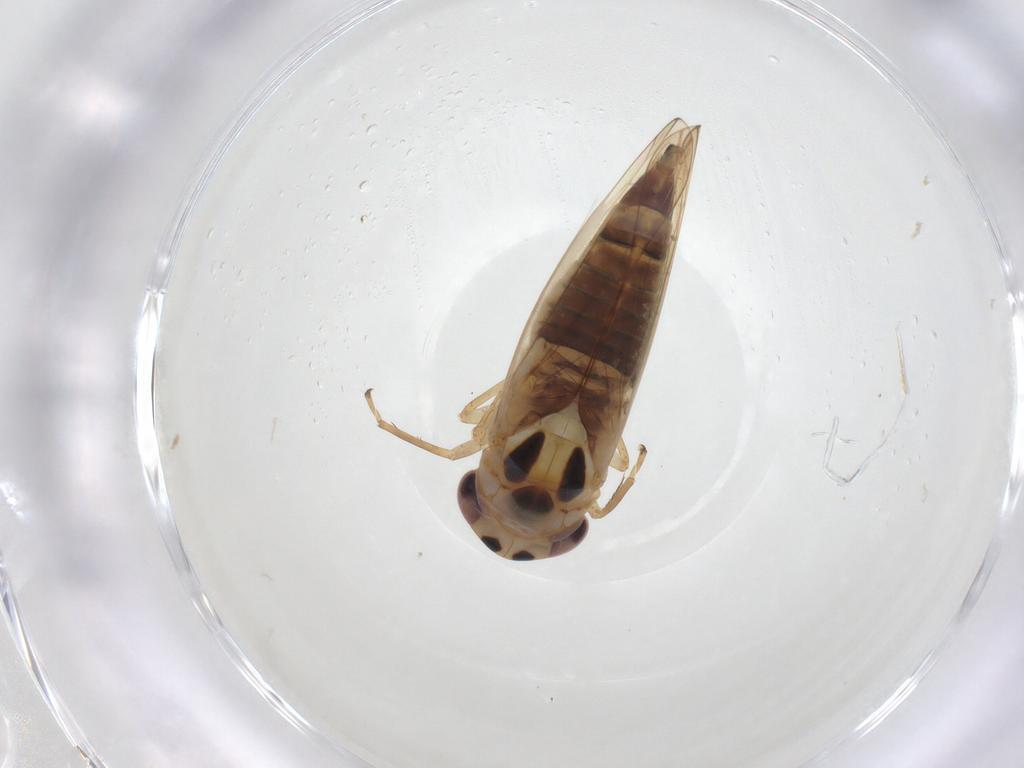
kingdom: Animalia
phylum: Arthropoda
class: Insecta
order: Hemiptera
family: Cicadellidae
